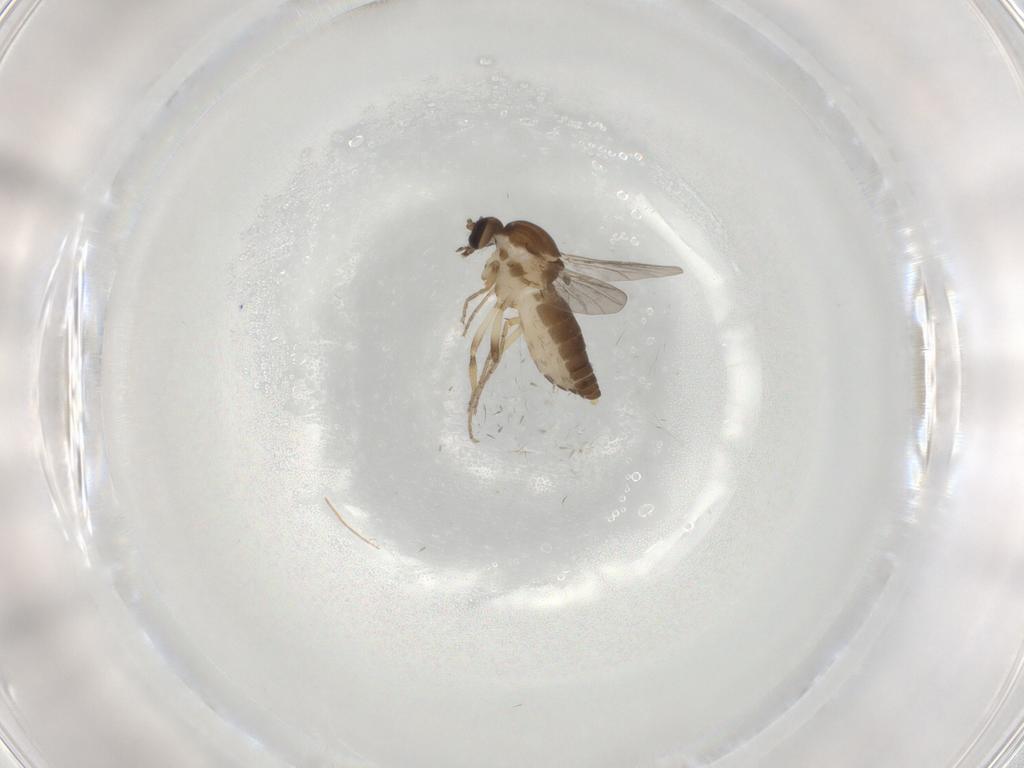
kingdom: Animalia
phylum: Arthropoda
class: Insecta
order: Diptera
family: Ceratopogonidae
